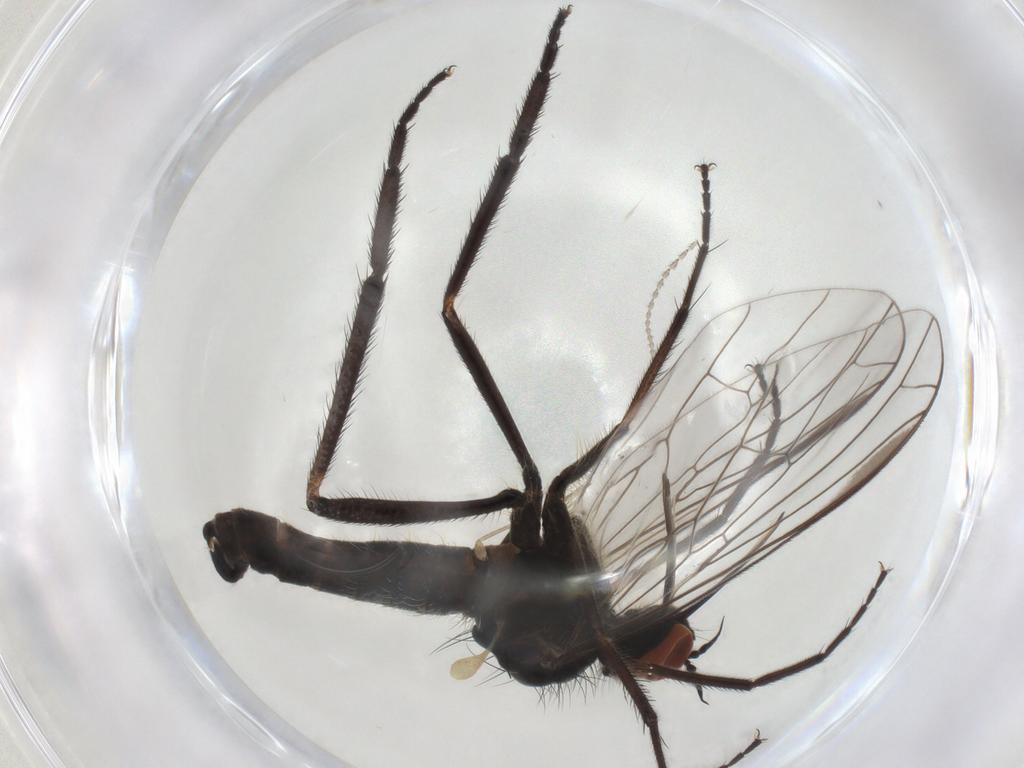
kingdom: Animalia
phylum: Arthropoda
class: Insecta
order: Diptera
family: Empididae
